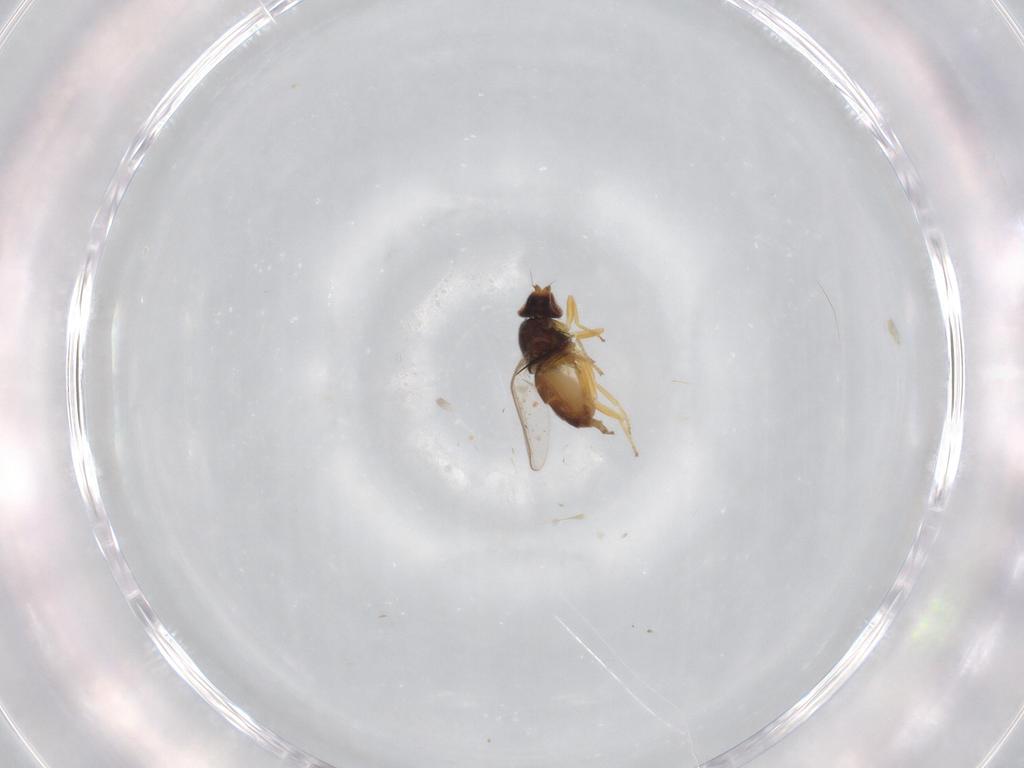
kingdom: Animalia
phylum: Arthropoda
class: Insecta
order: Diptera
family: Chloropidae
